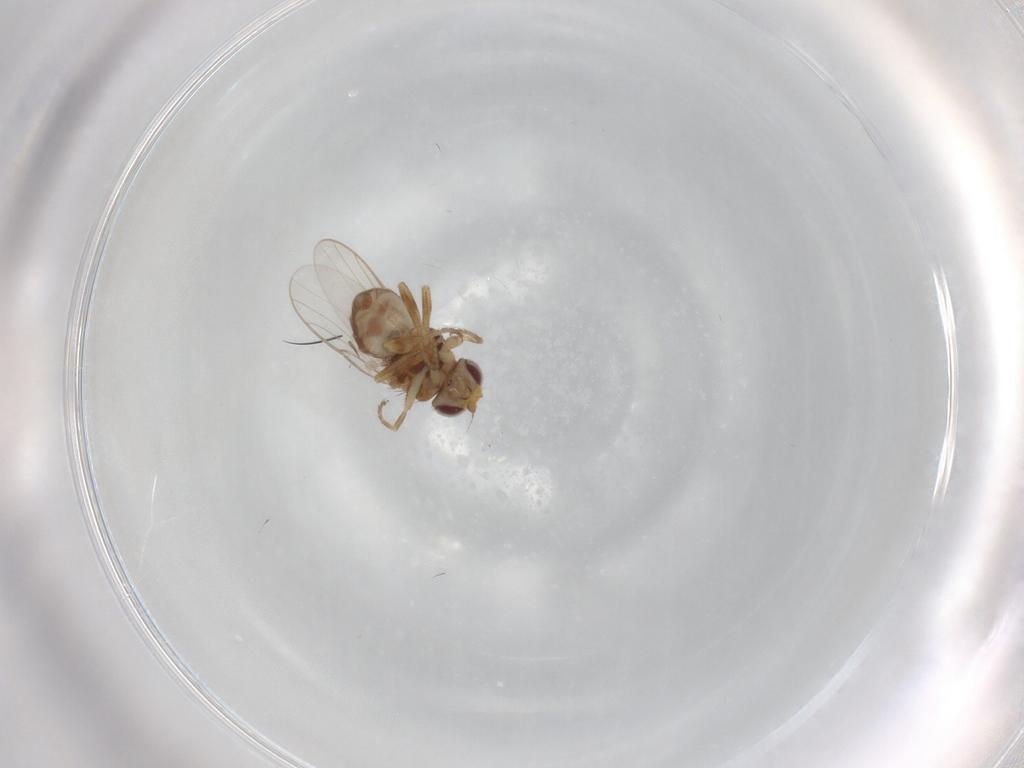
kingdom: Animalia
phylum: Arthropoda
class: Insecta
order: Diptera
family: Chloropidae
